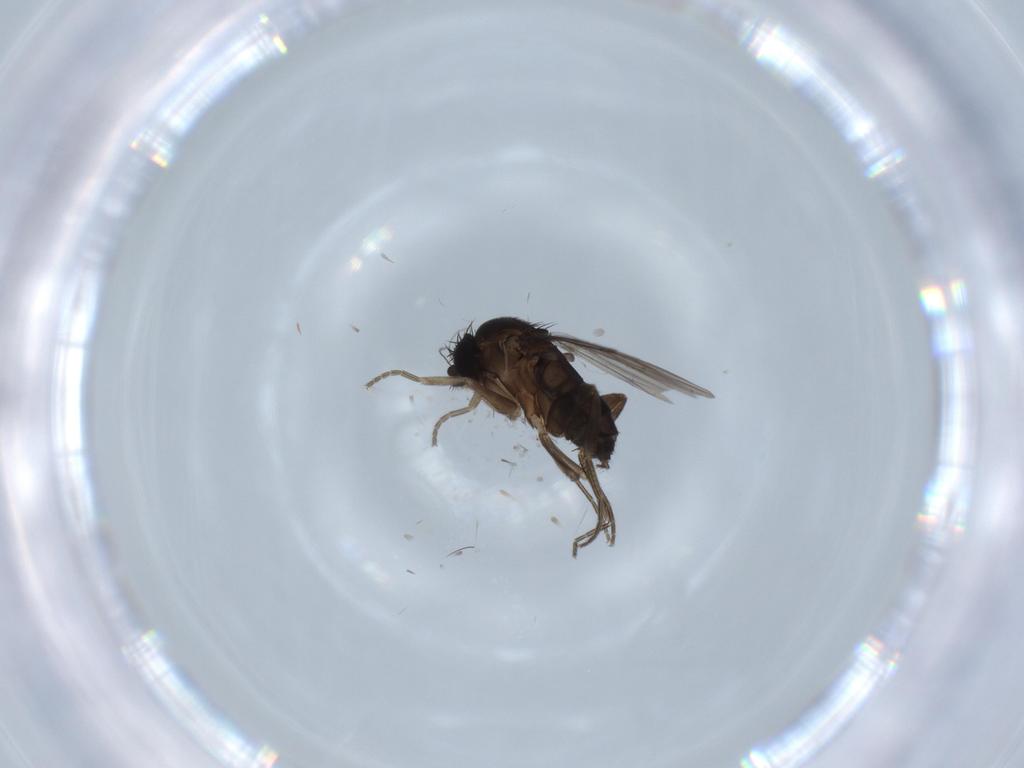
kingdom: Animalia
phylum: Arthropoda
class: Insecta
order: Diptera
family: Phoridae
